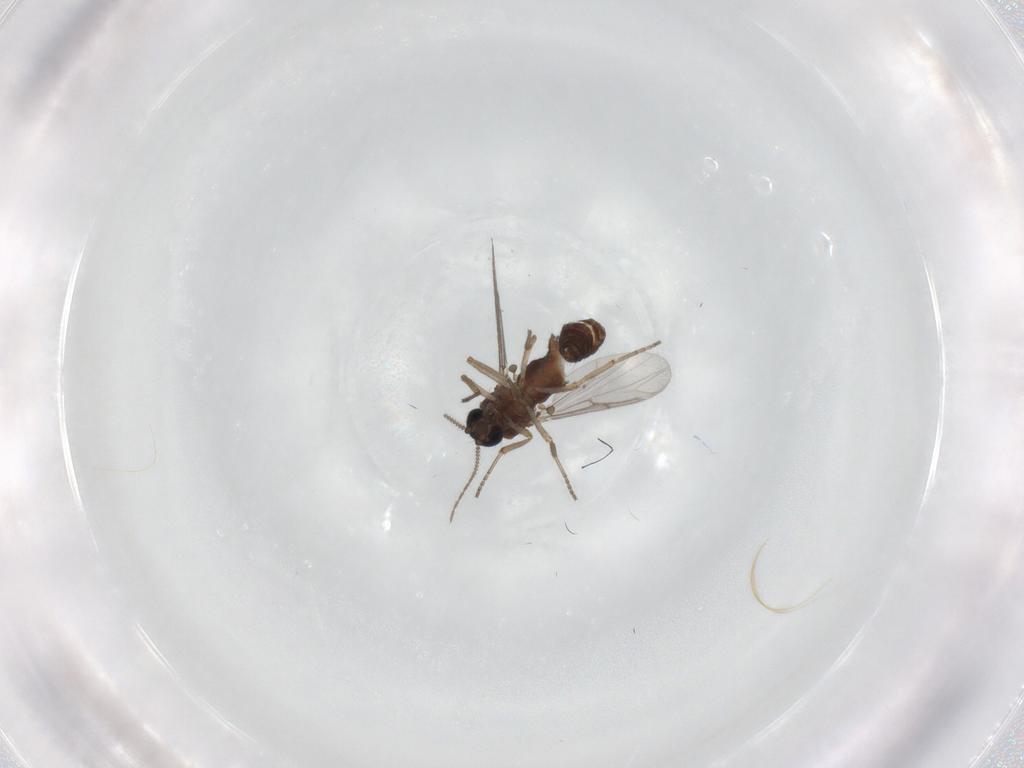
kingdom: Animalia
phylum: Arthropoda
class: Insecta
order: Diptera
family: Ceratopogonidae
